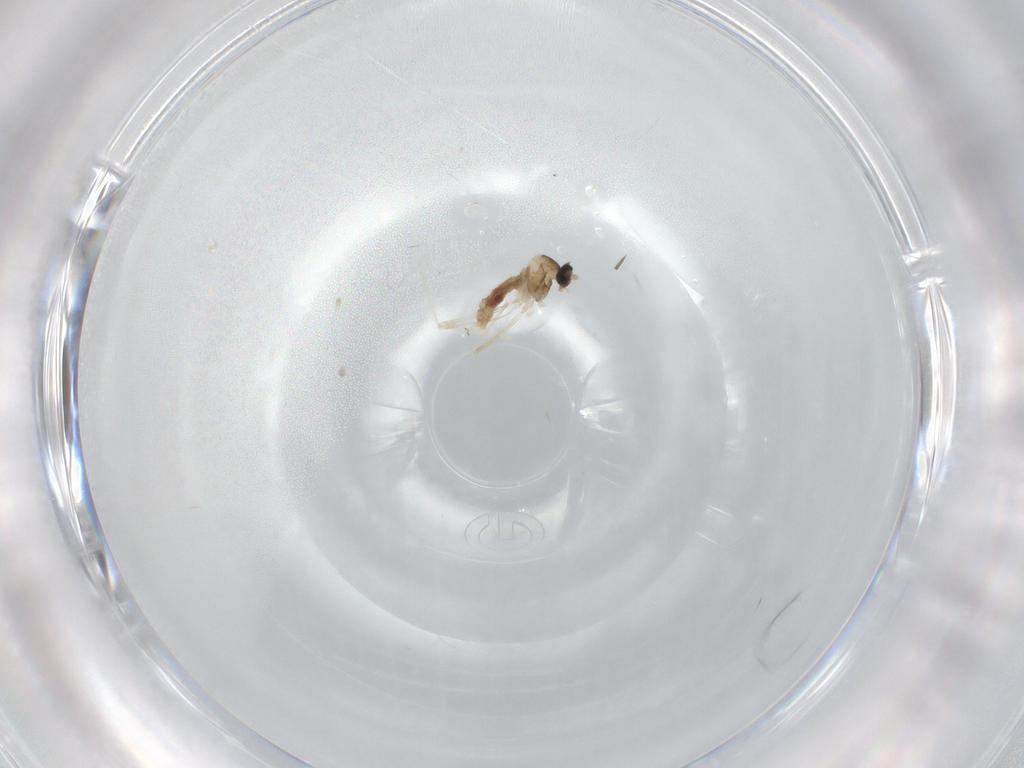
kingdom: Animalia
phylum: Arthropoda
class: Insecta
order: Diptera
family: Cecidomyiidae
